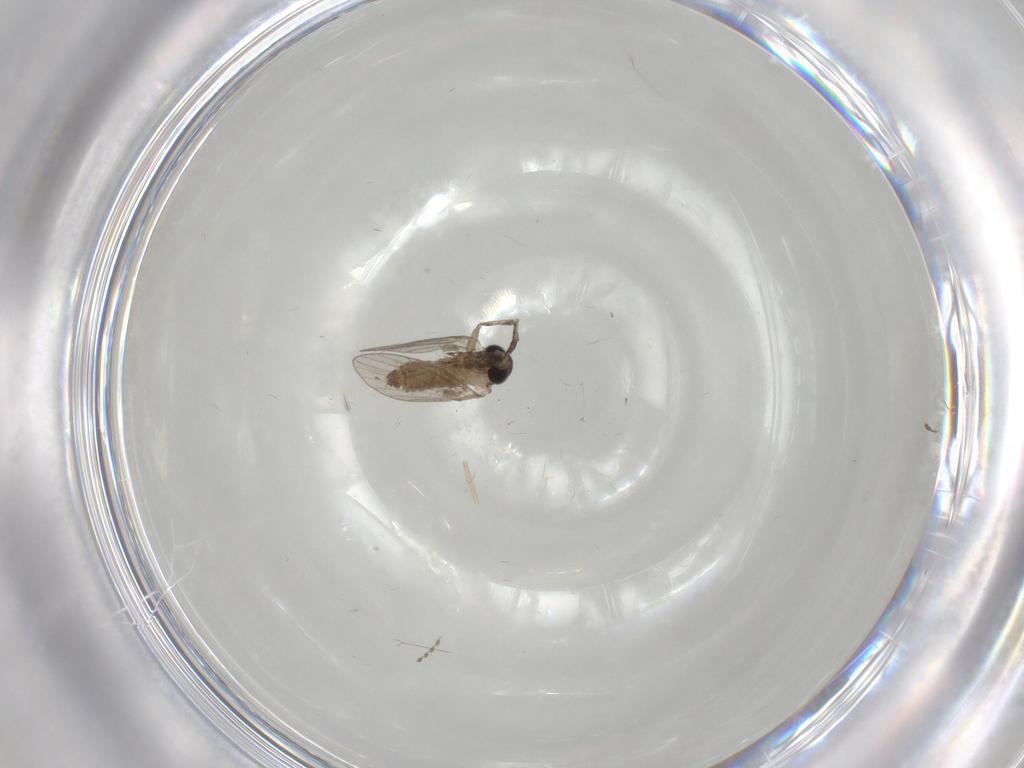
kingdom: Animalia
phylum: Arthropoda
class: Insecta
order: Diptera
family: Psychodidae
